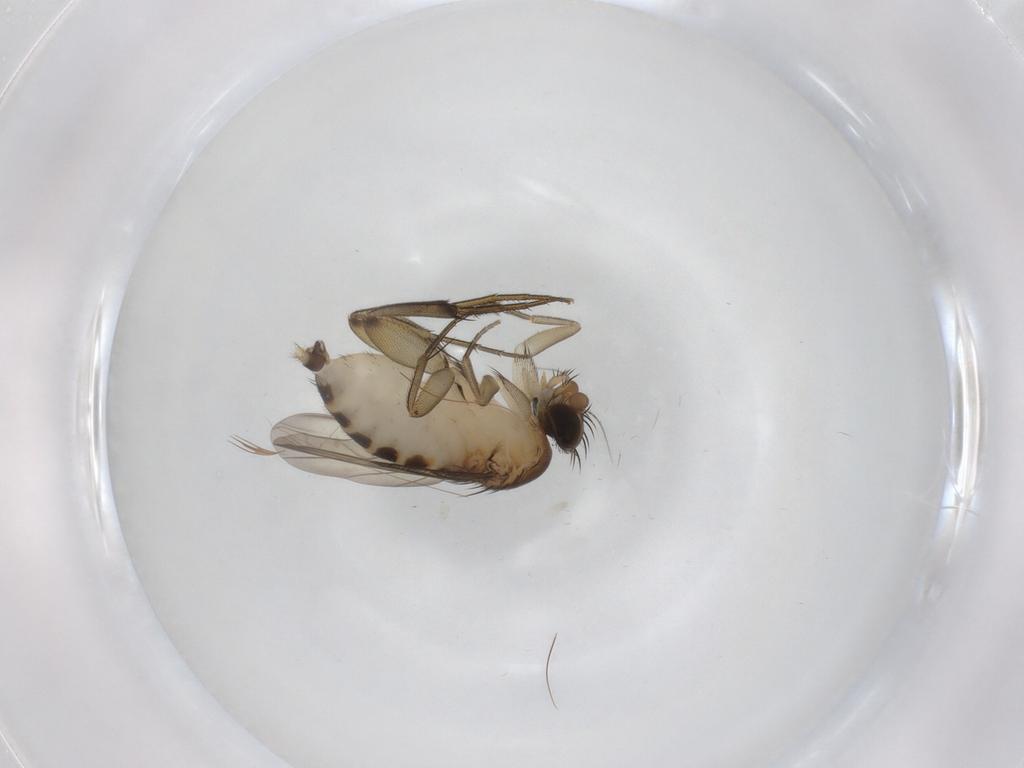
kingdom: Animalia
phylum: Arthropoda
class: Insecta
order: Diptera
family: Phoridae
